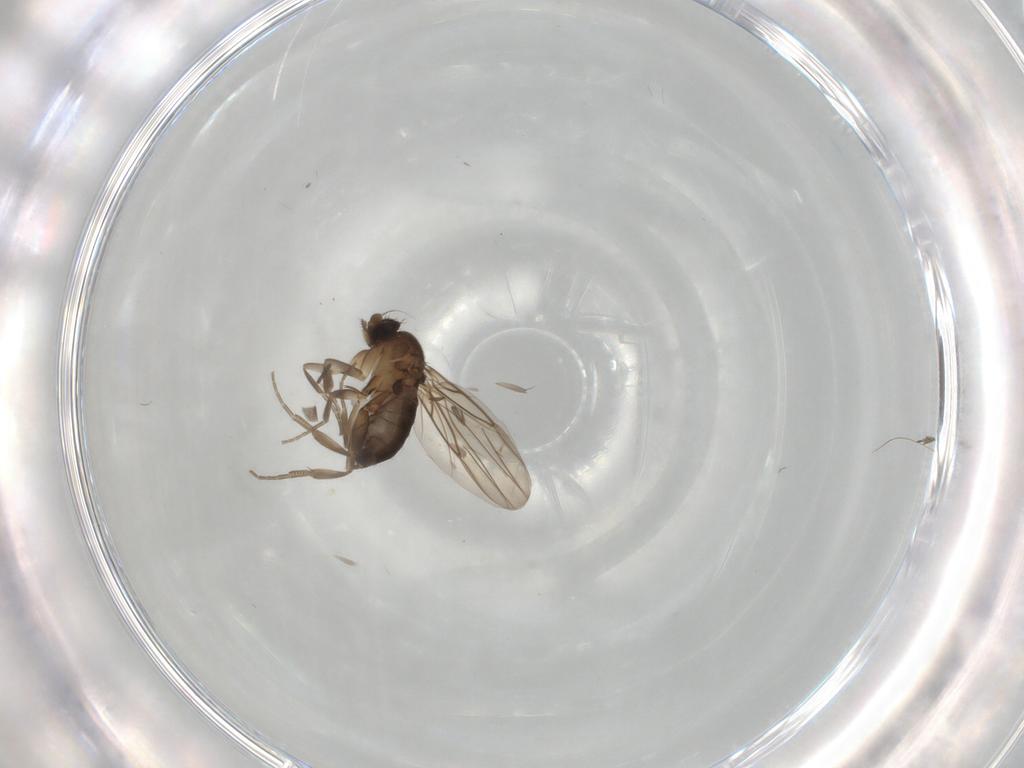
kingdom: Animalia
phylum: Arthropoda
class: Insecta
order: Diptera
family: Phoridae
